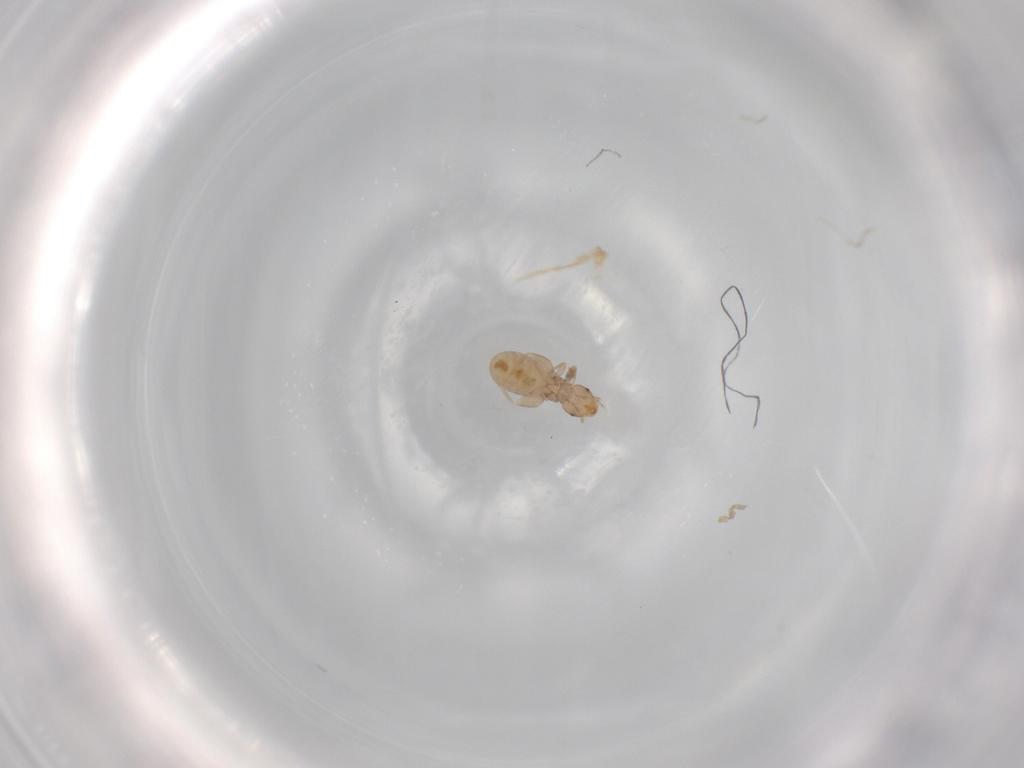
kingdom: Animalia
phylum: Arthropoda
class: Insecta
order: Psocodea
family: Liposcelididae
